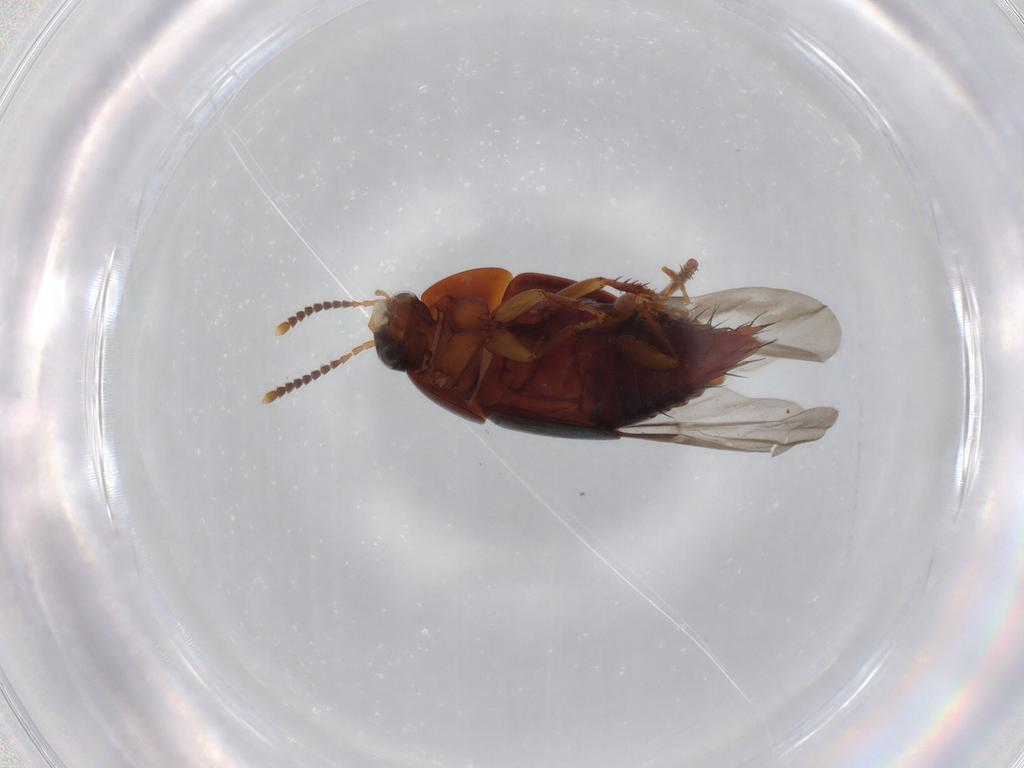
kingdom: Animalia
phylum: Arthropoda
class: Insecta
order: Coleoptera
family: Staphylinidae
